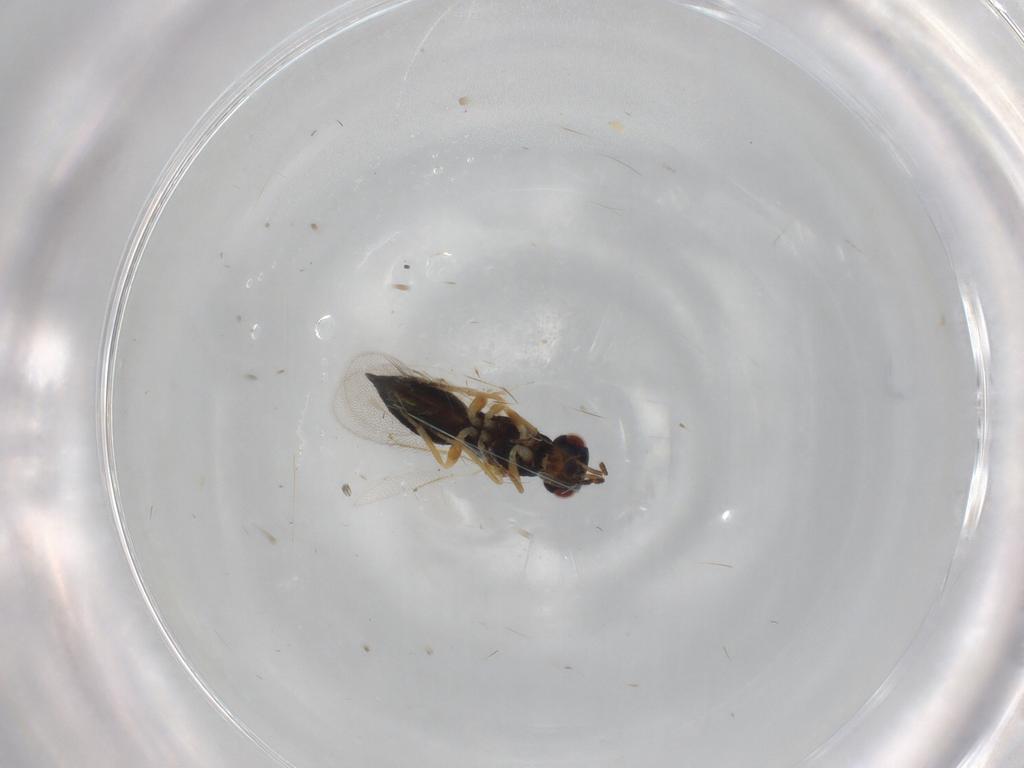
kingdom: Animalia
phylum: Arthropoda
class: Insecta
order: Hymenoptera
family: Eulophidae
